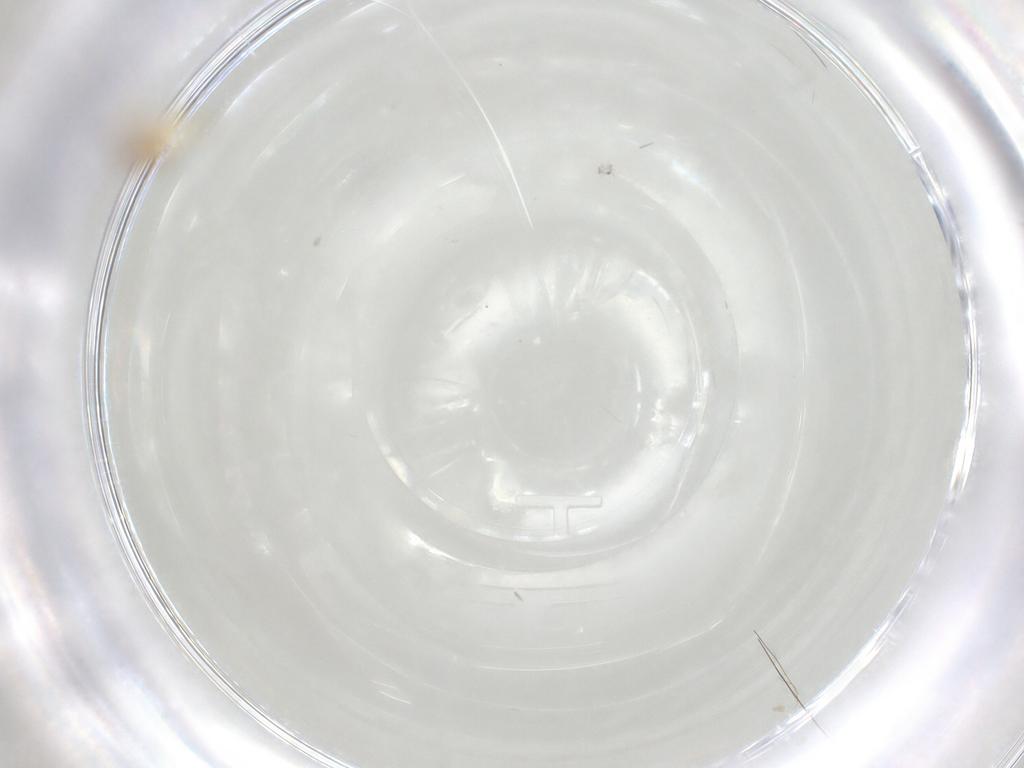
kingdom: Animalia
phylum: Arthropoda
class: Insecta
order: Diptera
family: Chironomidae
